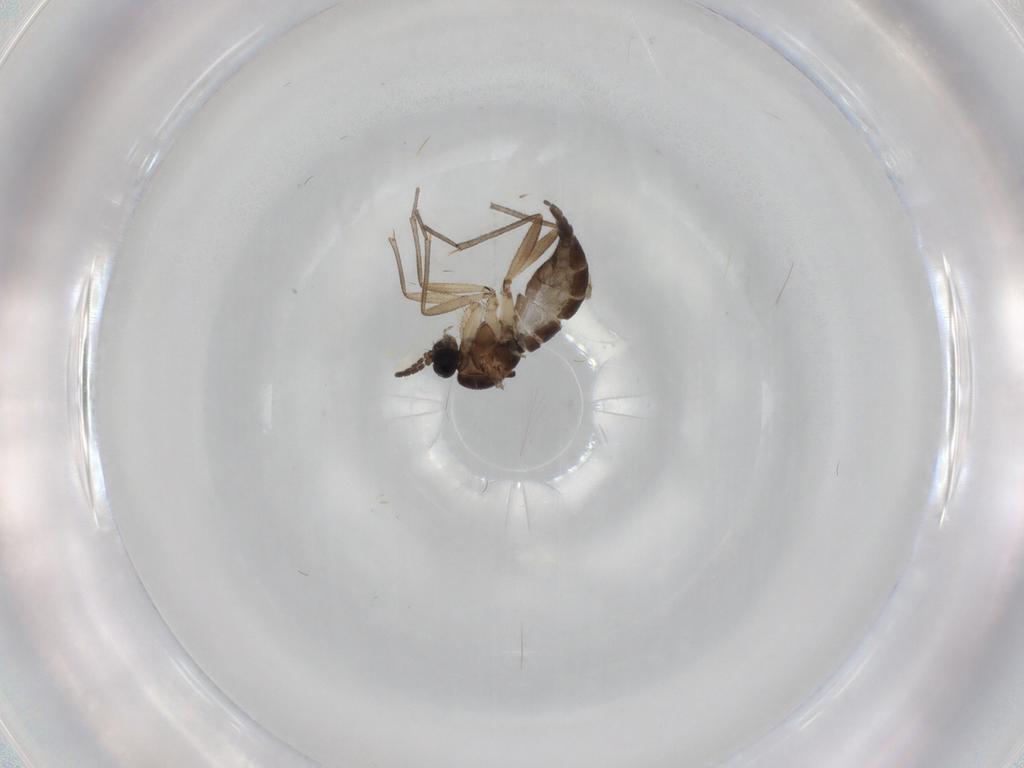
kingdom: Animalia
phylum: Arthropoda
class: Insecta
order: Diptera
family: Sciaridae
